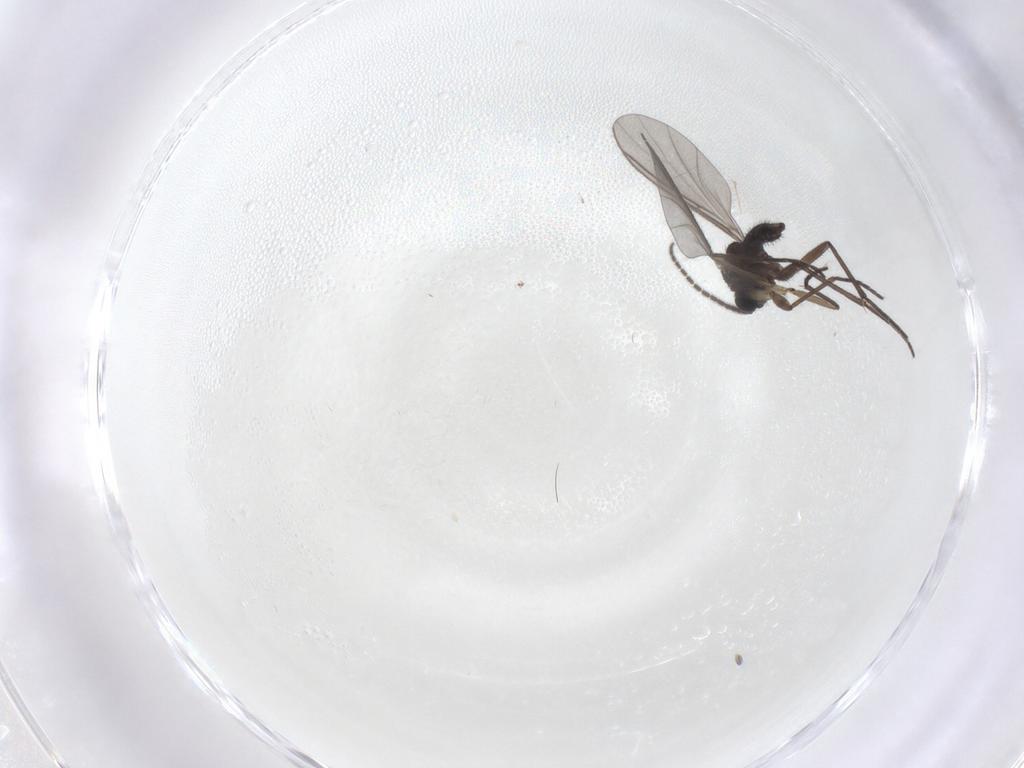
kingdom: Animalia
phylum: Arthropoda
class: Insecta
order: Diptera
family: Sciaridae
